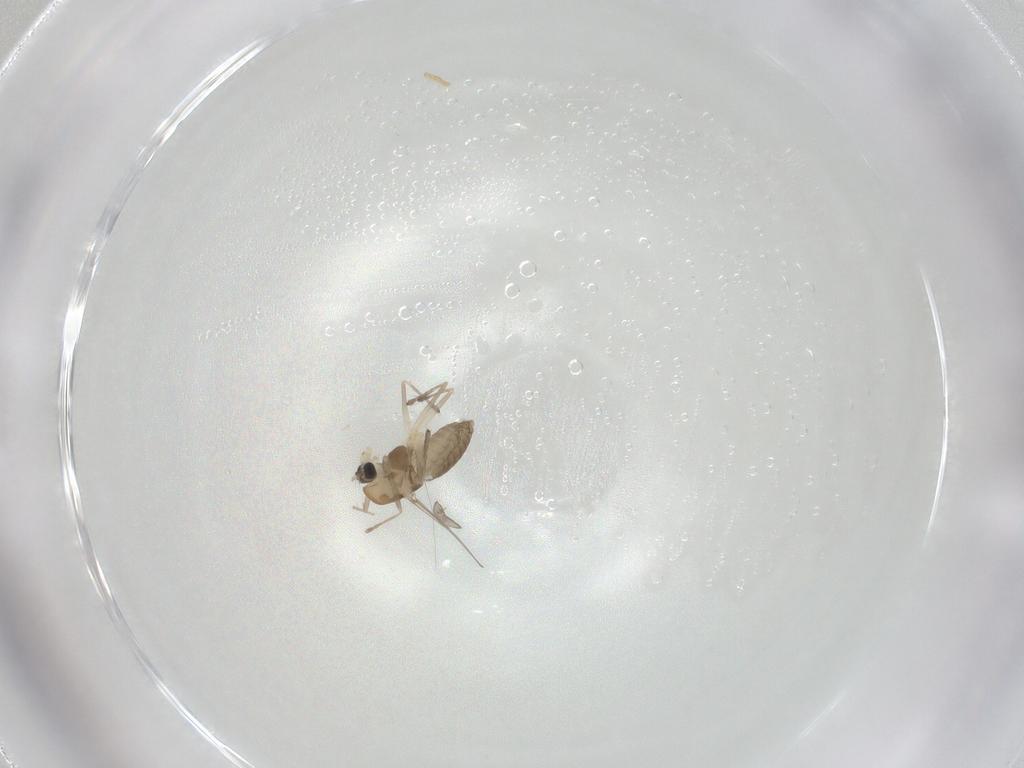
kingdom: Animalia
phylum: Arthropoda
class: Insecta
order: Diptera
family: Chironomidae
